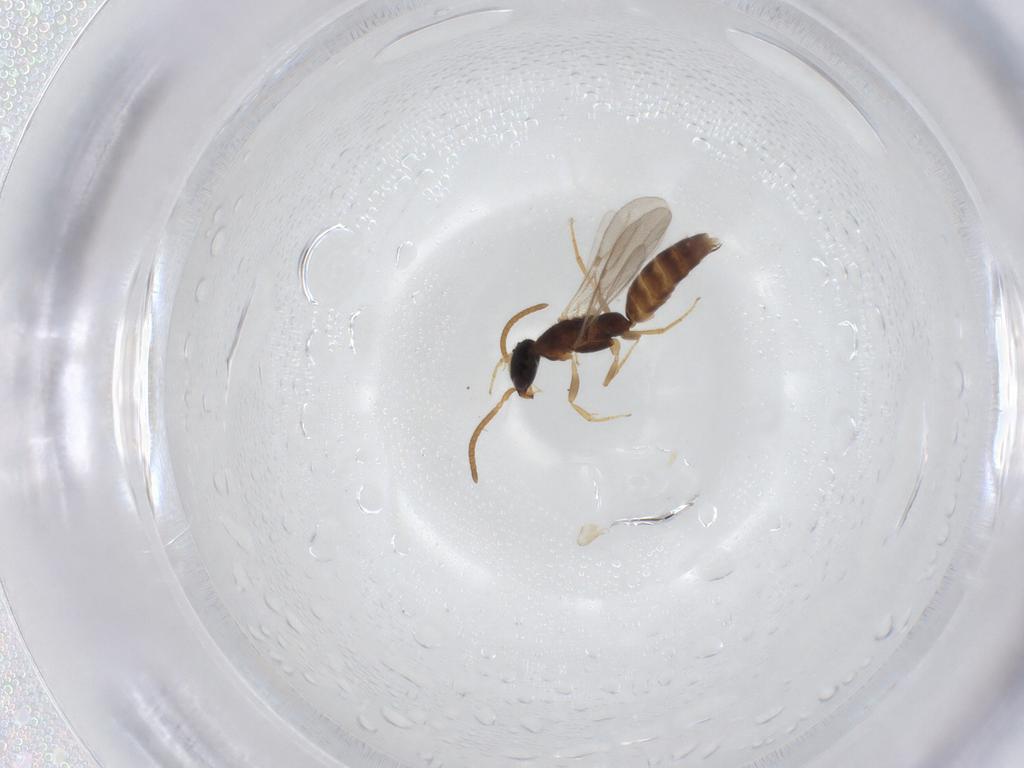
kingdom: Animalia
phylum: Arthropoda
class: Insecta
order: Hymenoptera
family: Bethylidae
